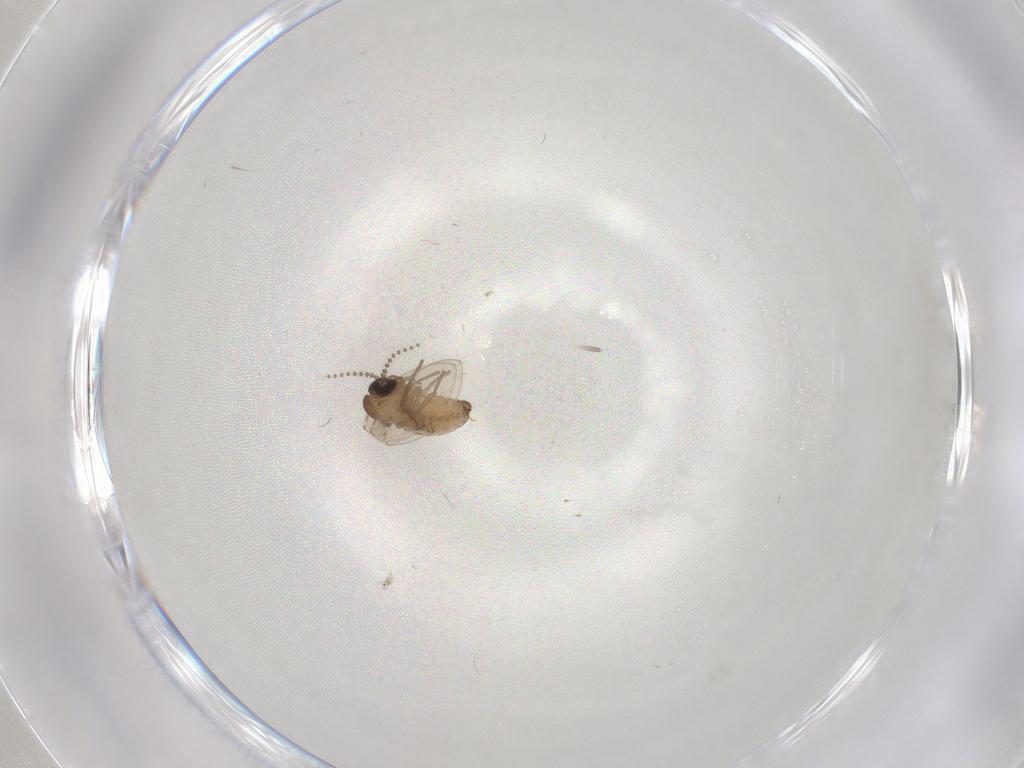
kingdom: Animalia
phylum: Arthropoda
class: Insecta
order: Diptera
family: Psychodidae
